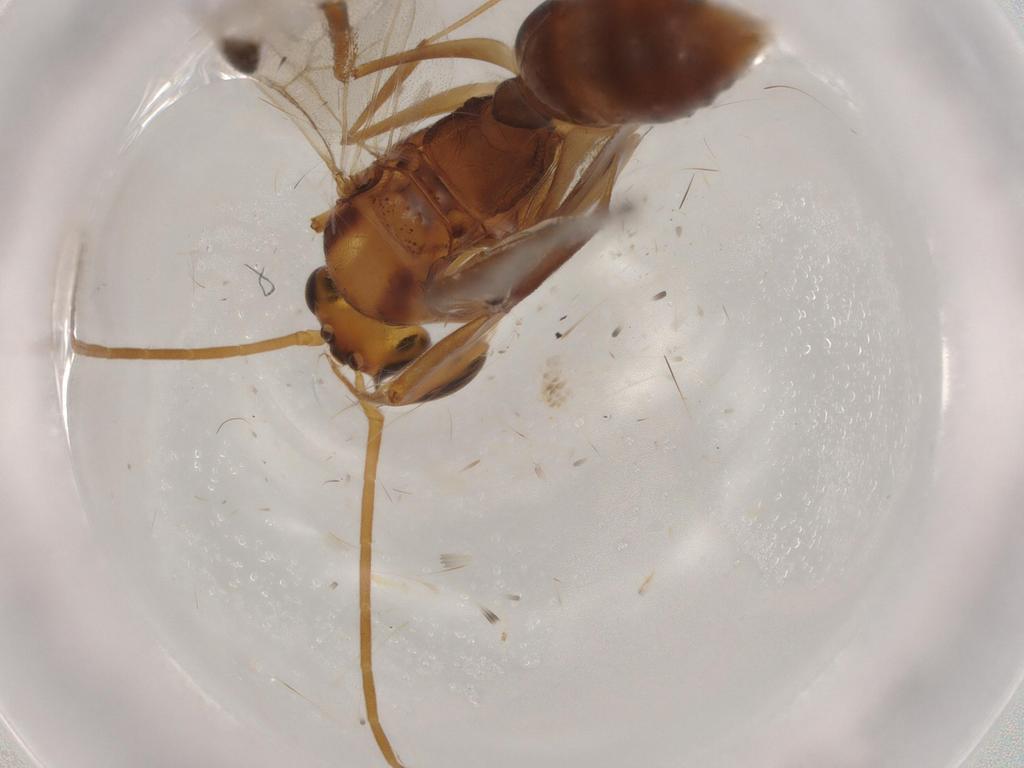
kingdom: Animalia
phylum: Arthropoda
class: Insecta
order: Hymenoptera
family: Formicidae
